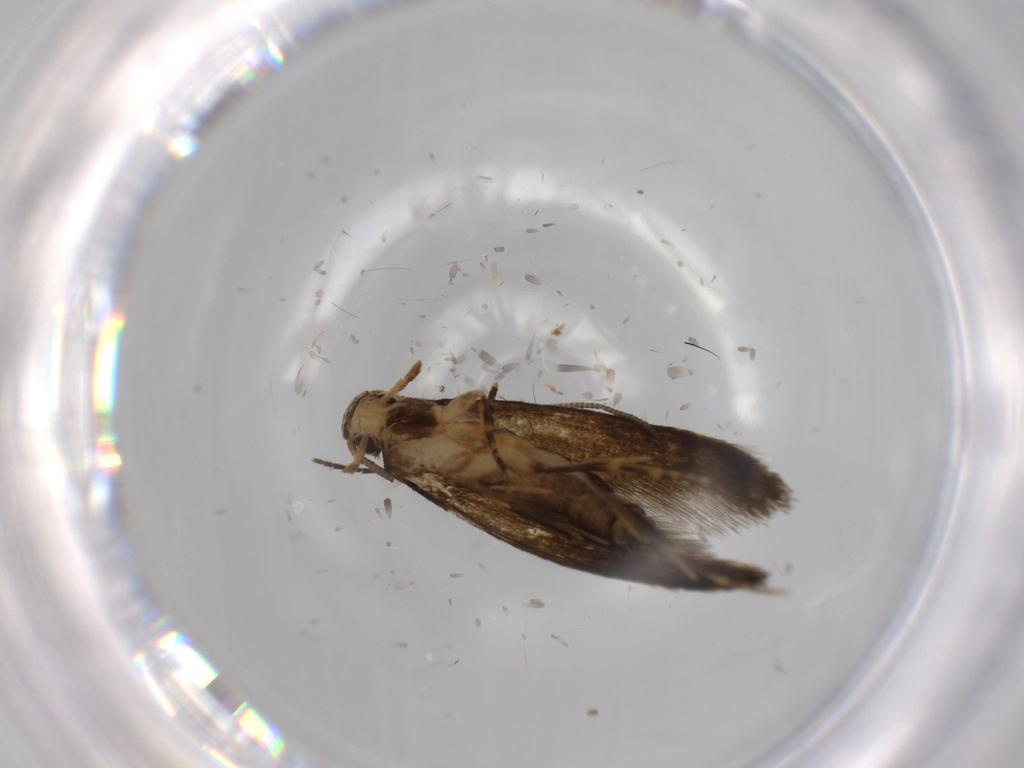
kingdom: Animalia
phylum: Arthropoda
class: Insecta
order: Lepidoptera
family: Tineidae
